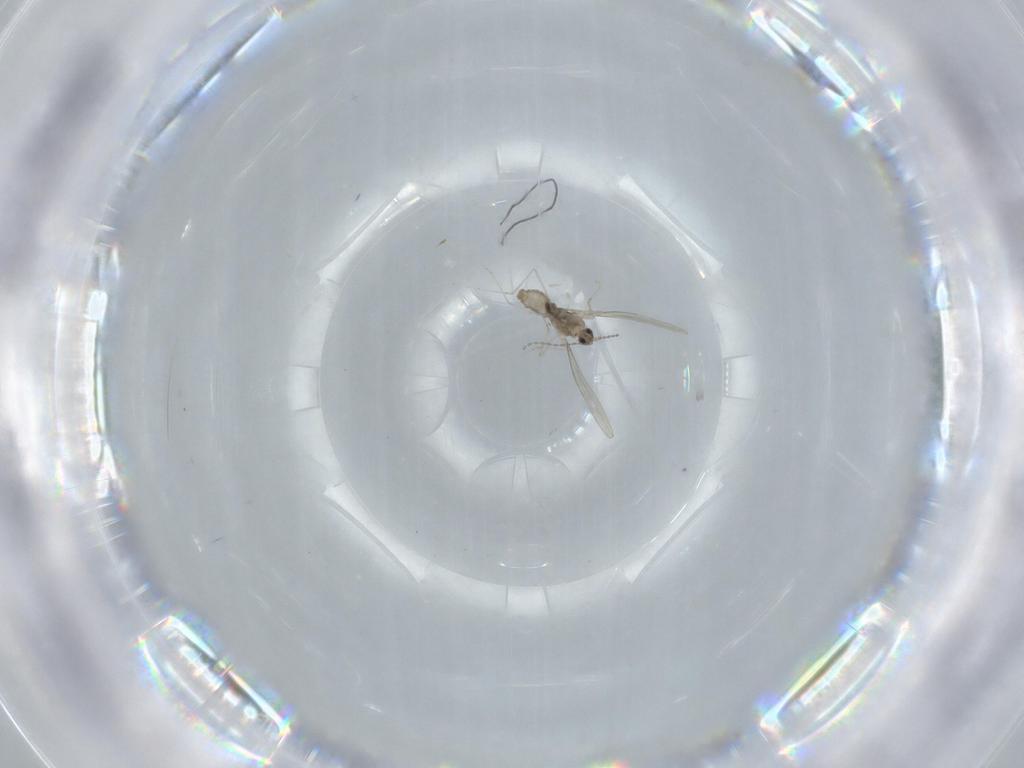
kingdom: Animalia
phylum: Arthropoda
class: Insecta
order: Diptera
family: Cecidomyiidae
